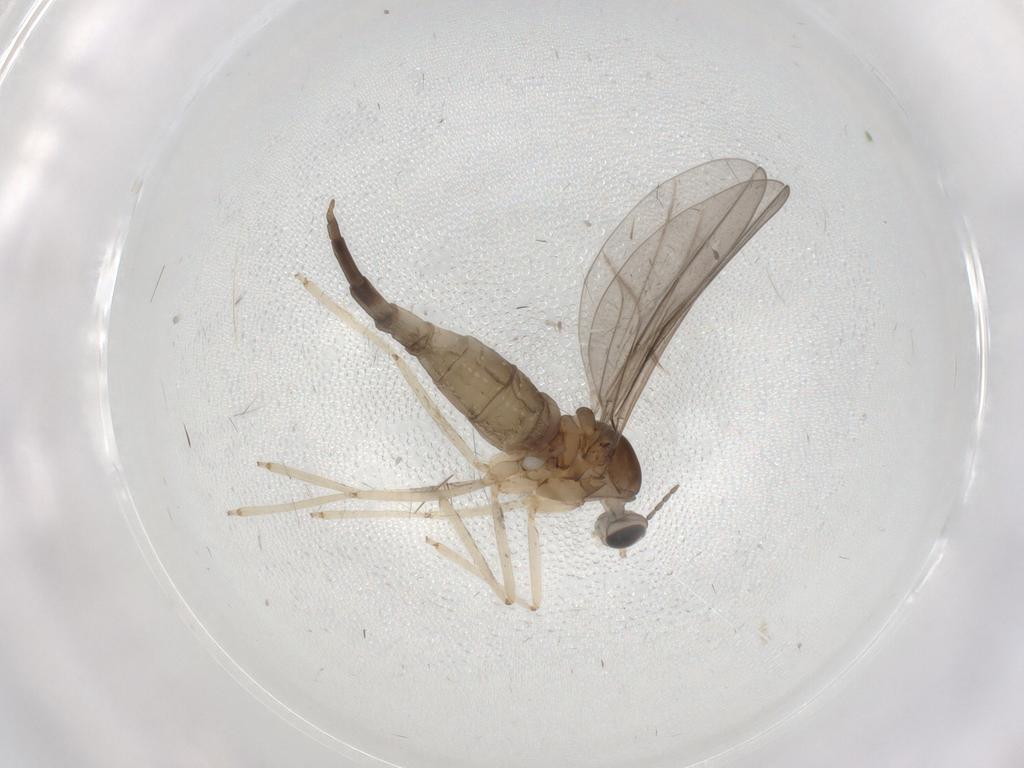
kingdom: Animalia
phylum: Arthropoda
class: Insecta
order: Diptera
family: Cecidomyiidae
